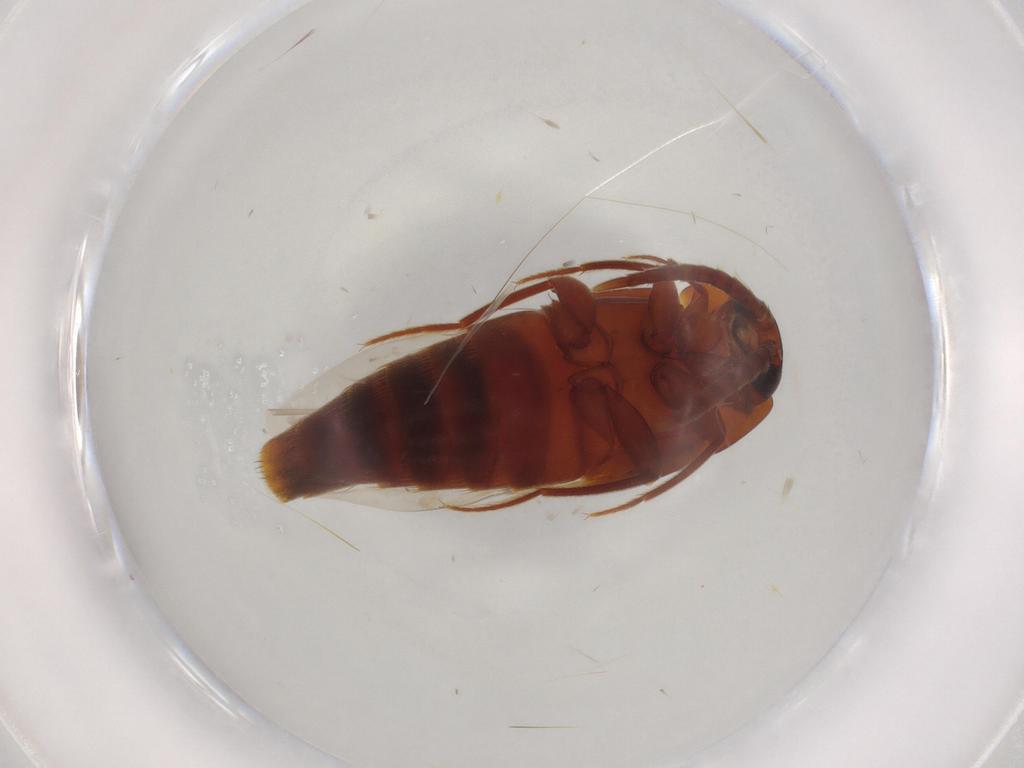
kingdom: Animalia
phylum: Arthropoda
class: Insecta
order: Coleoptera
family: Staphylinidae
